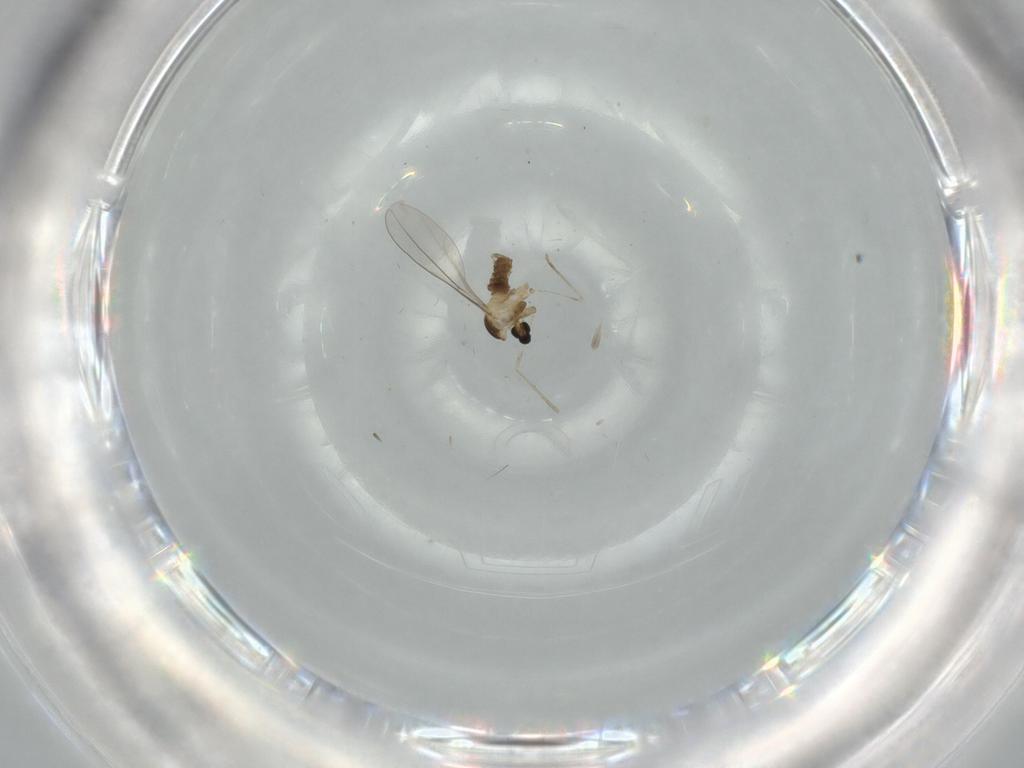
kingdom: Animalia
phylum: Arthropoda
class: Insecta
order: Diptera
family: Cecidomyiidae
